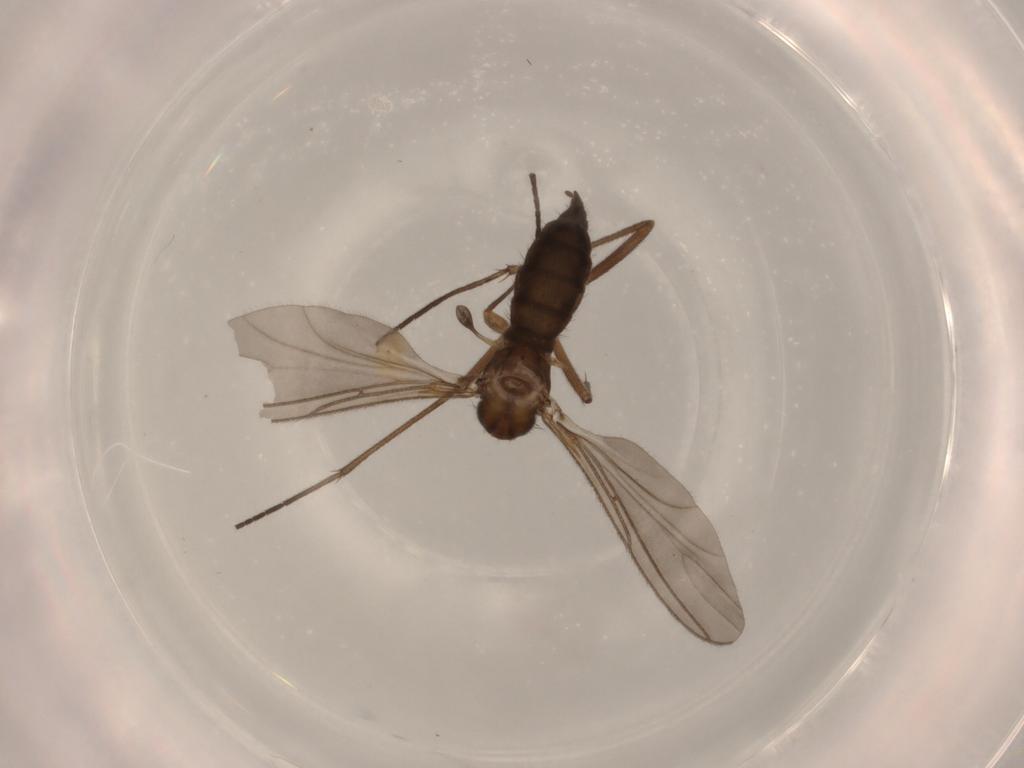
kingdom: Animalia
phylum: Arthropoda
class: Insecta
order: Diptera
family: Sciaridae
